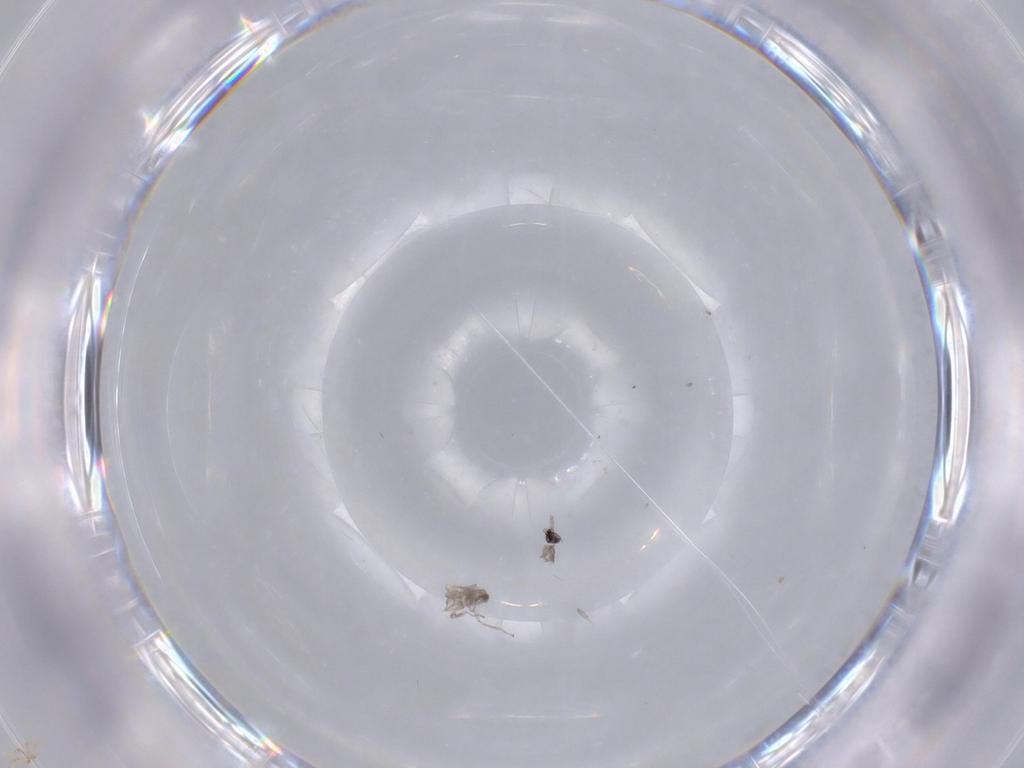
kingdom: Animalia
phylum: Arthropoda
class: Insecta
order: Diptera
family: Cecidomyiidae
